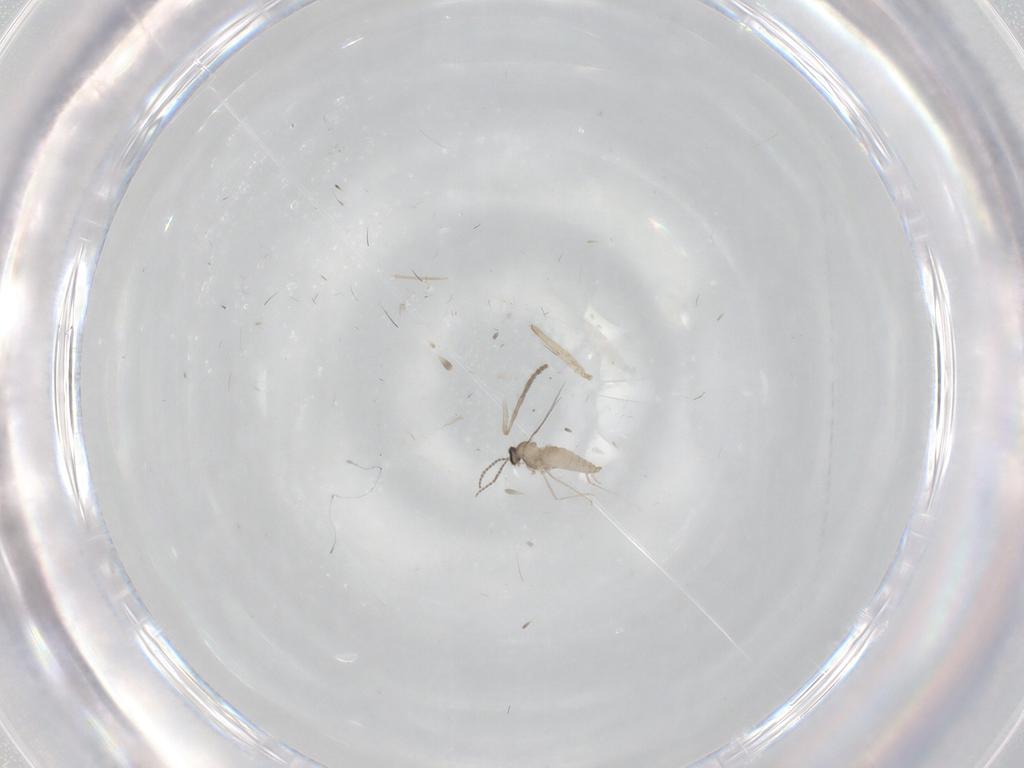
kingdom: Animalia
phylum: Arthropoda
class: Insecta
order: Diptera
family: Cecidomyiidae
